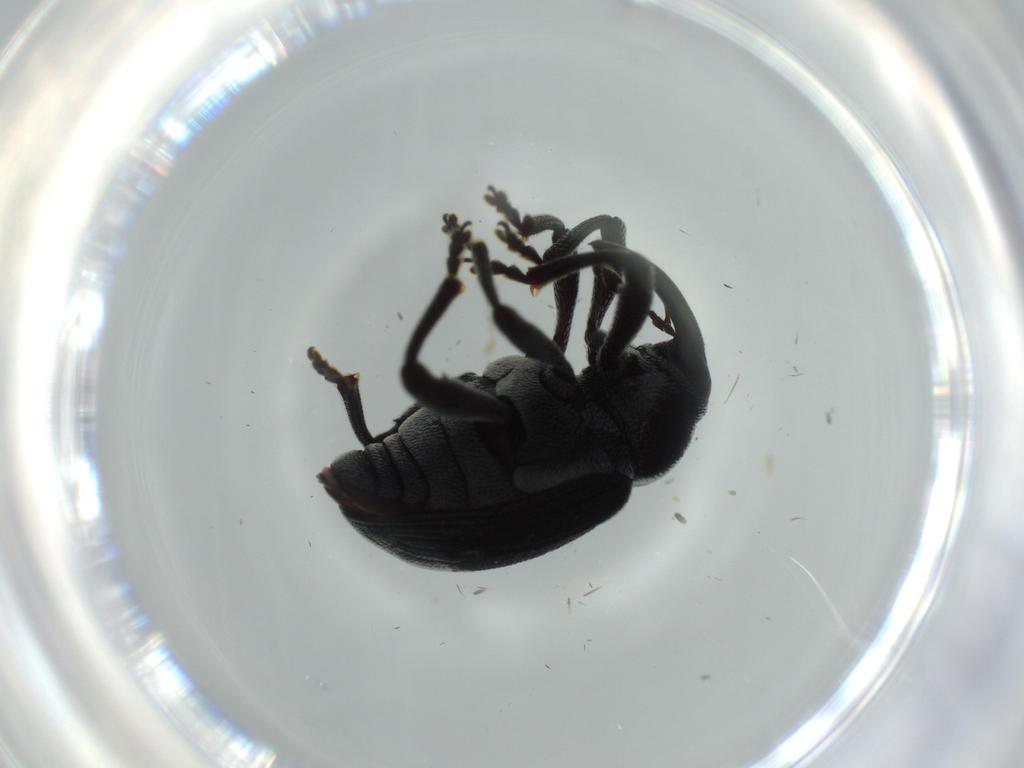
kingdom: Animalia
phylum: Arthropoda
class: Insecta
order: Coleoptera
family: Curculionidae
